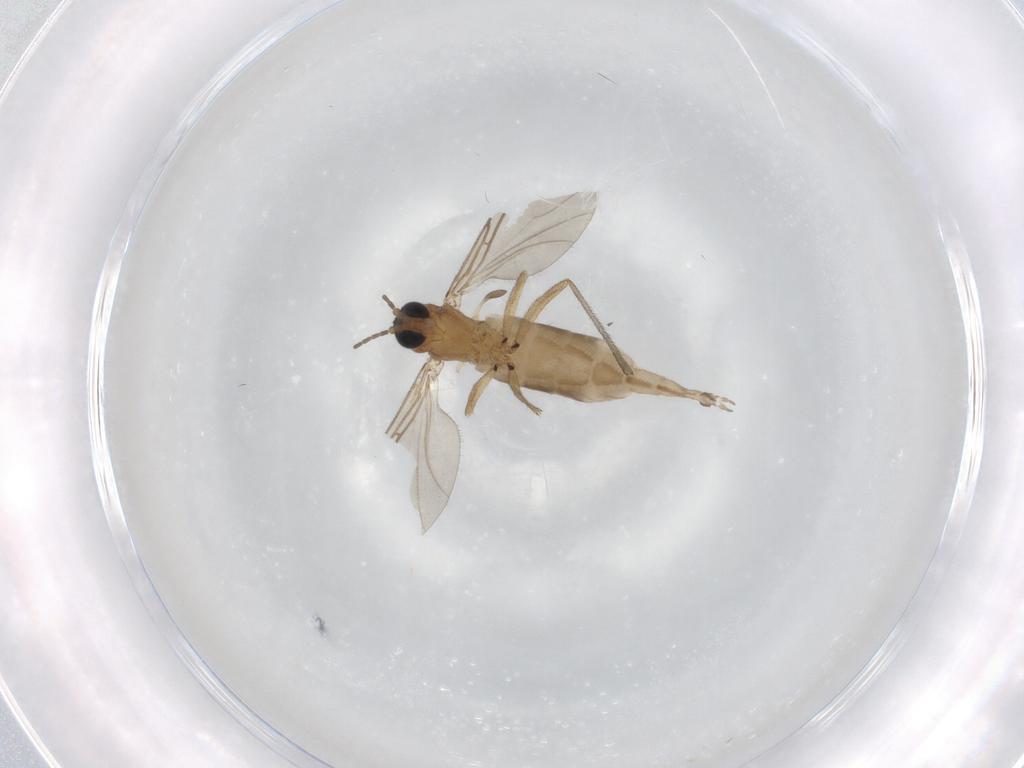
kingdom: Animalia
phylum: Arthropoda
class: Insecta
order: Diptera
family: Sciaridae
